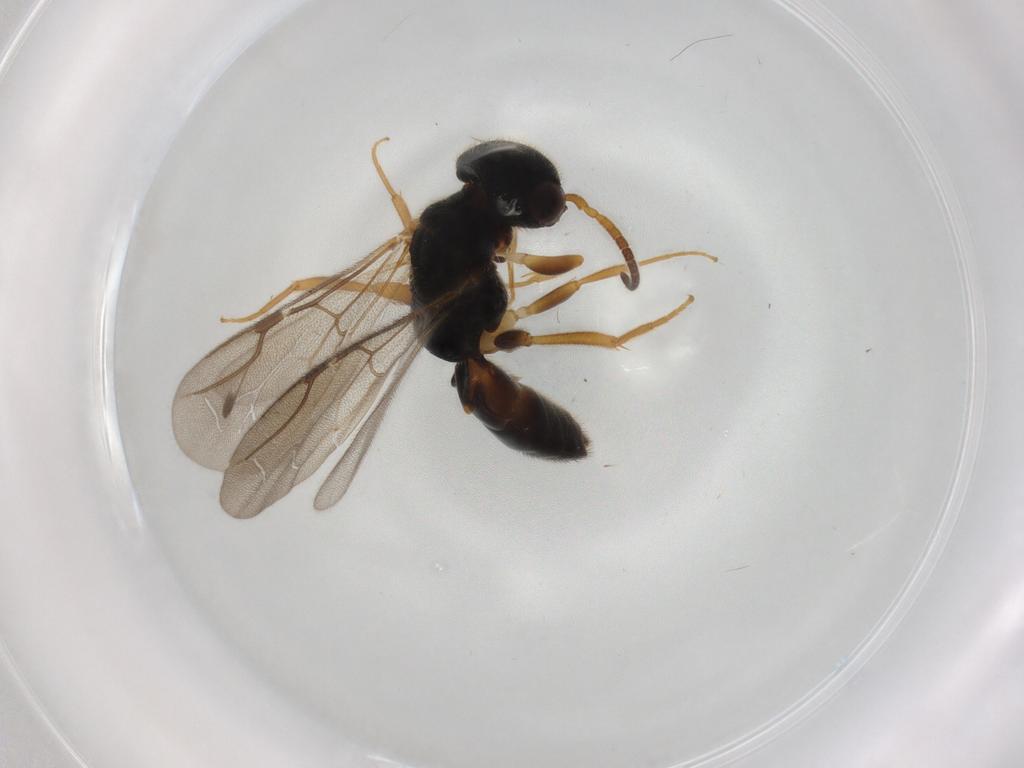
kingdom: Animalia
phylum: Arthropoda
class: Insecta
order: Hymenoptera
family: Bethylidae
